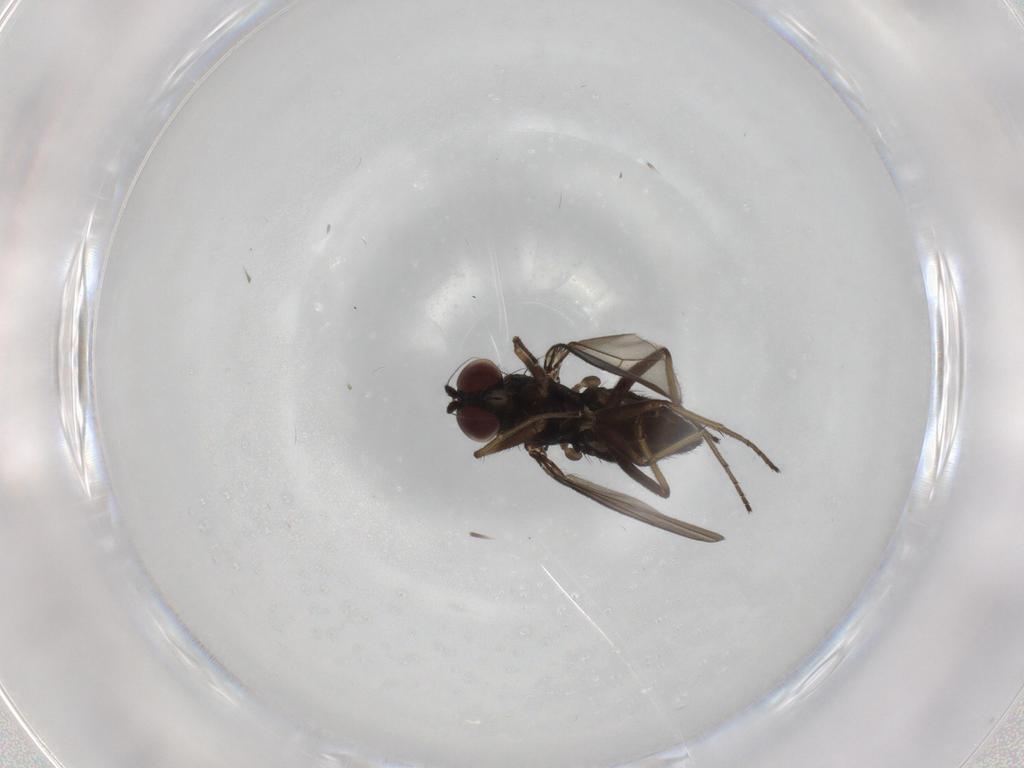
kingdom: Animalia
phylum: Arthropoda
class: Insecta
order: Diptera
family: Dolichopodidae
